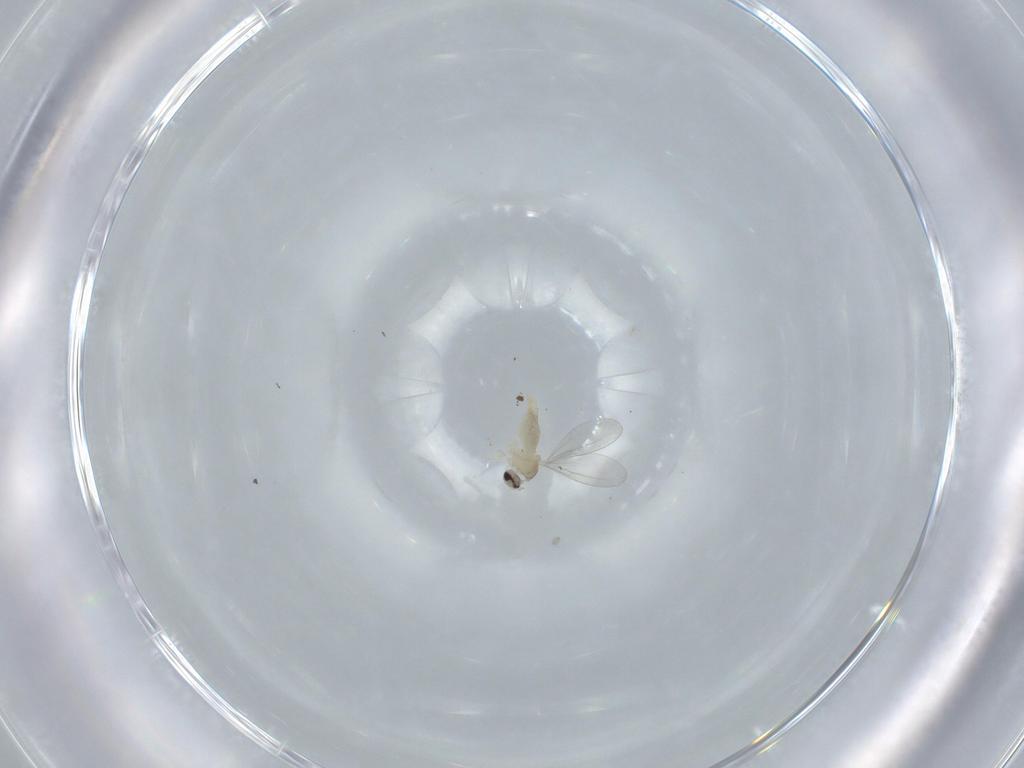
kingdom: Animalia
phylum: Arthropoda
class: Insecta
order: Diptera
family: Cecidomyiidae
